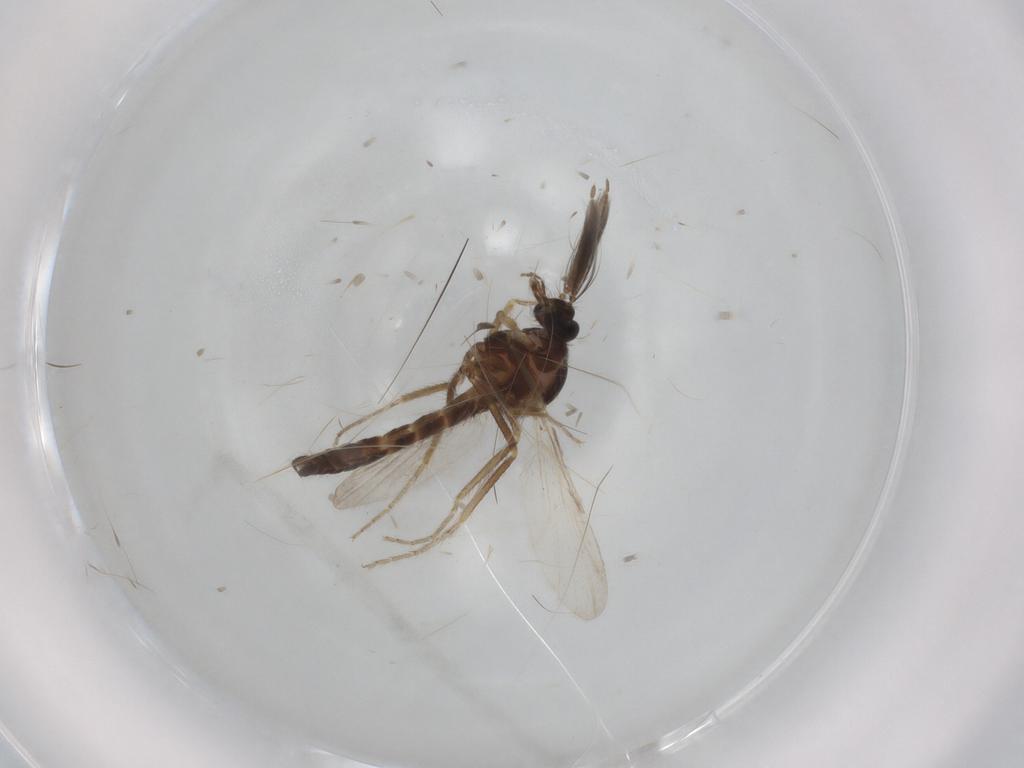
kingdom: Animalia
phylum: Arthropoda
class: Insecta
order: Diptera
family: Ceratopogonidae
